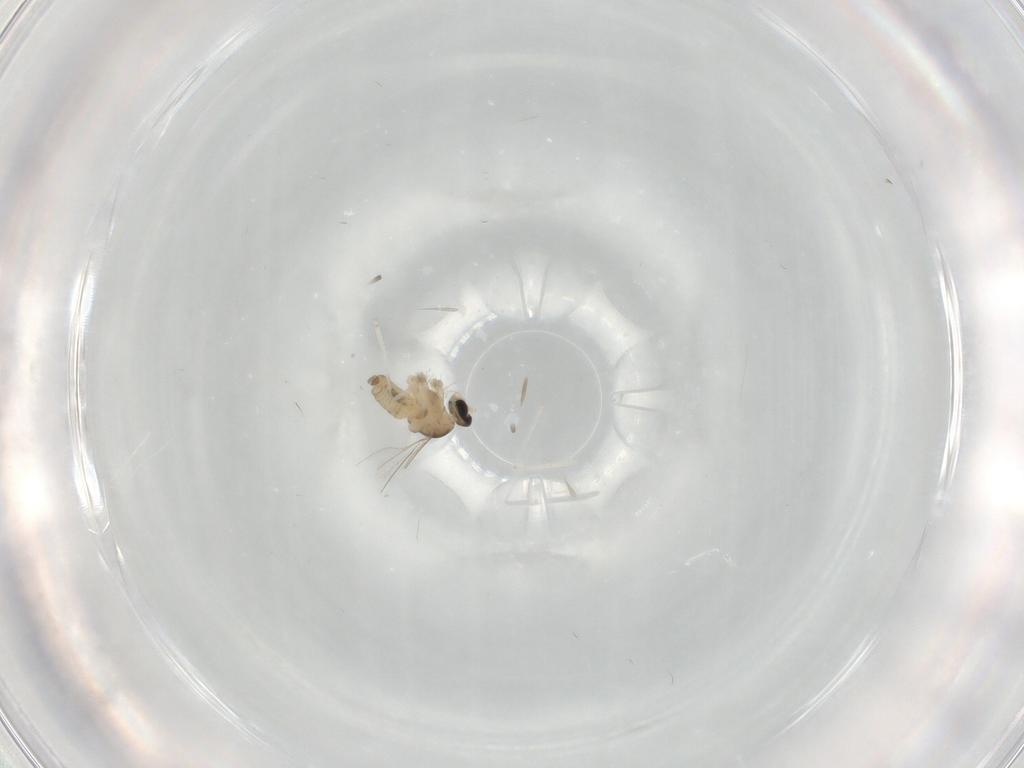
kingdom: Animalia
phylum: Arthropoda
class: Insecta
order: Diptera
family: Cecidomyiidae
